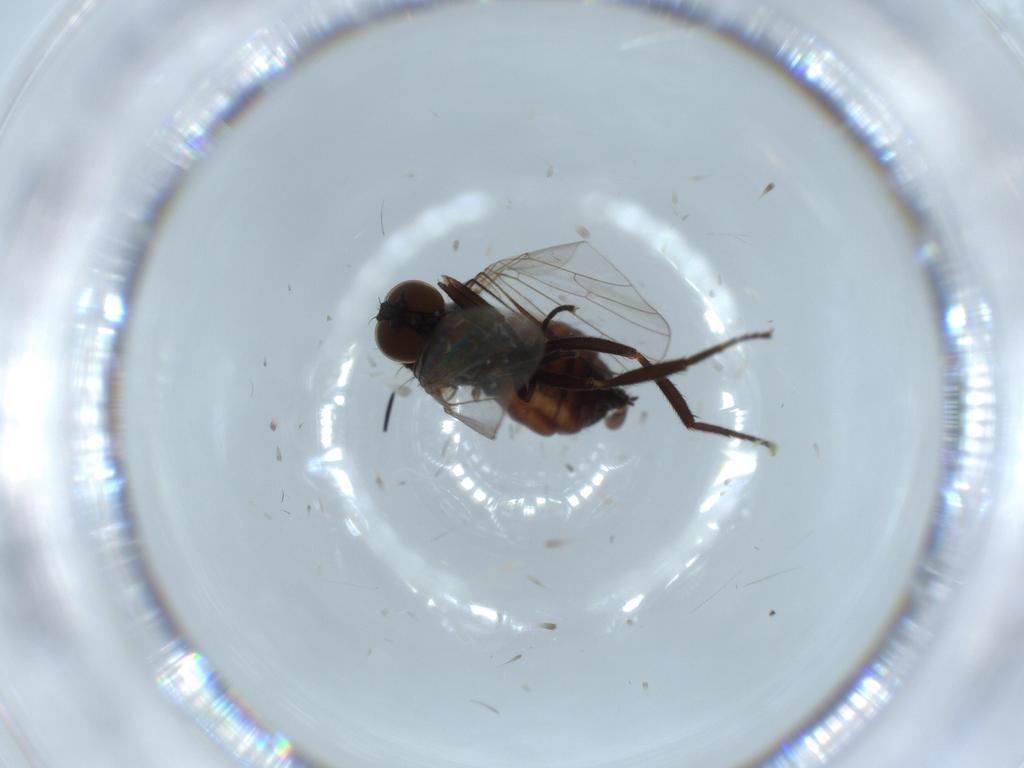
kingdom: Animalia
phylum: Arthropoda
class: Insecta
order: Diptera
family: Empididae
